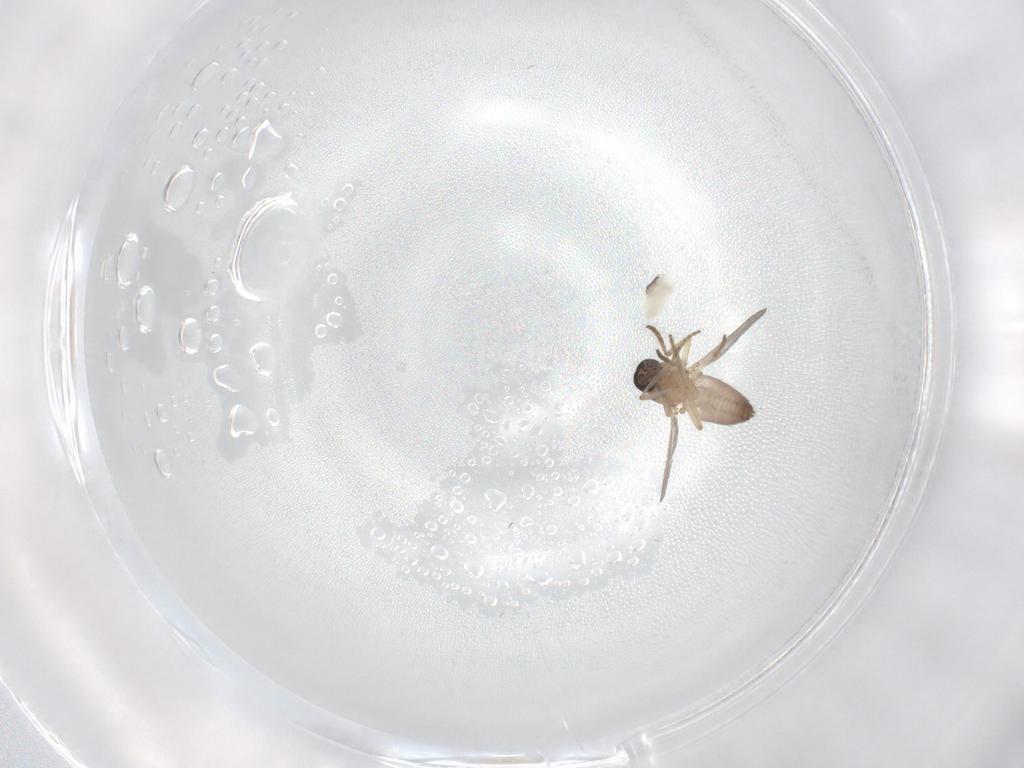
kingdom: Animalia
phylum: Arthropoda
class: Insecta
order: Diptera
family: Dolichopodidae
